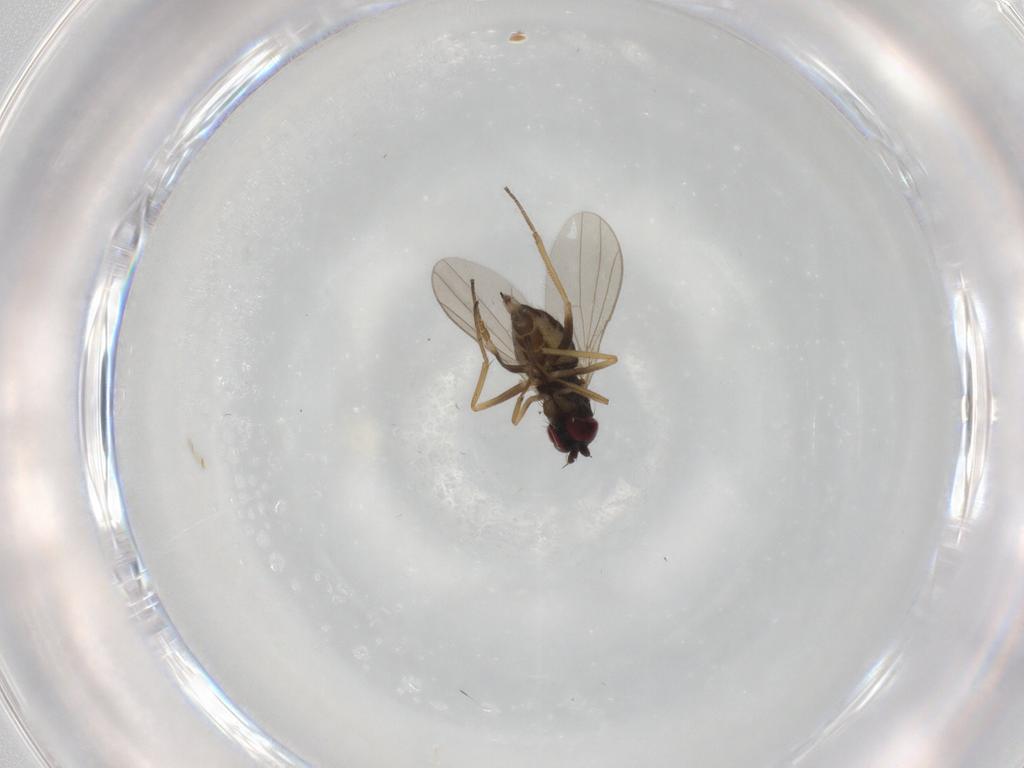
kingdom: Animalia
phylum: Arthropoda
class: Insecta
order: Diptera
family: Dolichopodidae
